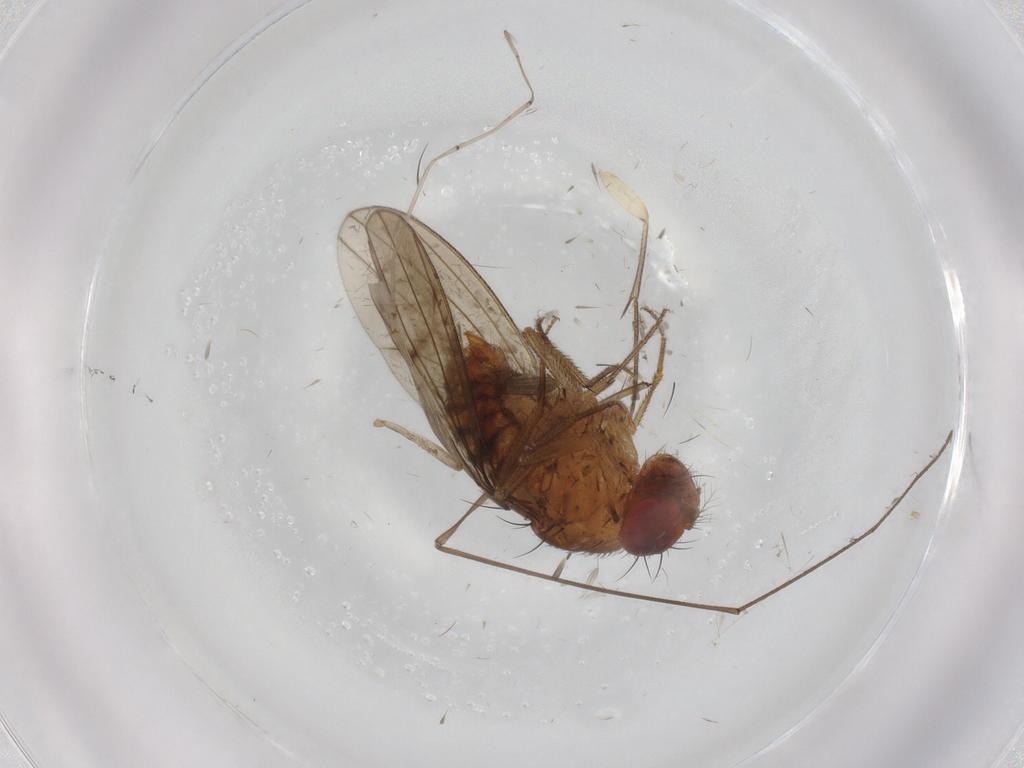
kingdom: Animalia
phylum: Arthropoda
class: Insecta
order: Diptera
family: Drosophilidae
